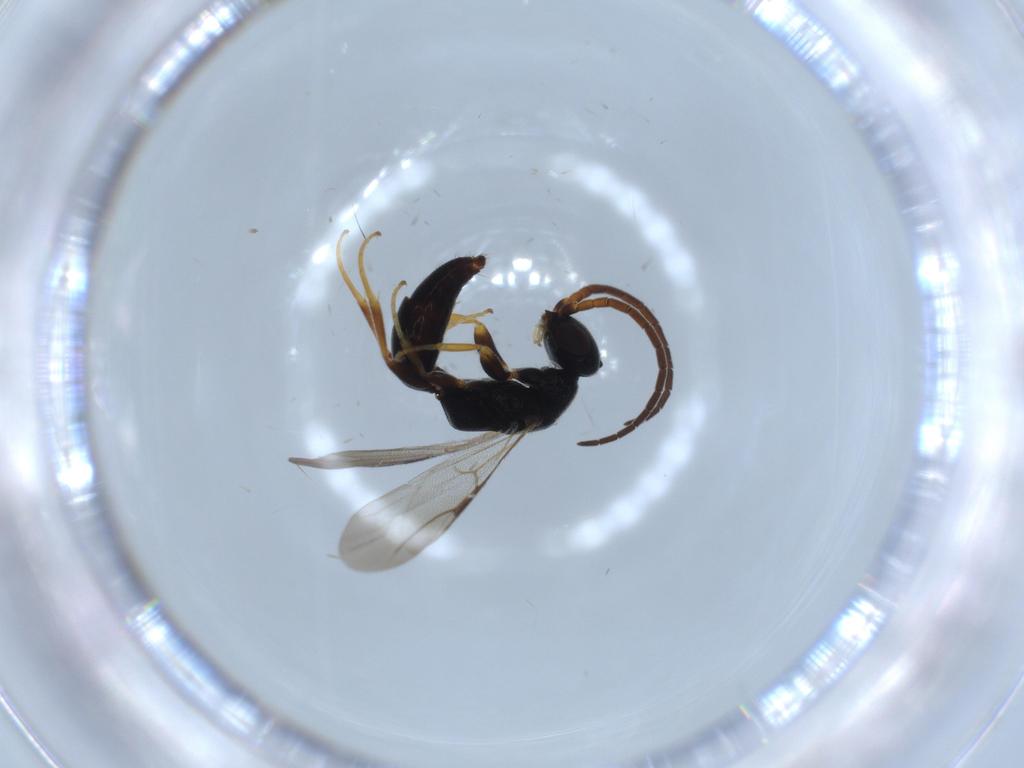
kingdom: Animalia
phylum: Arthropoda
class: Insecta
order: Hymenoptera
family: Bethylidae
